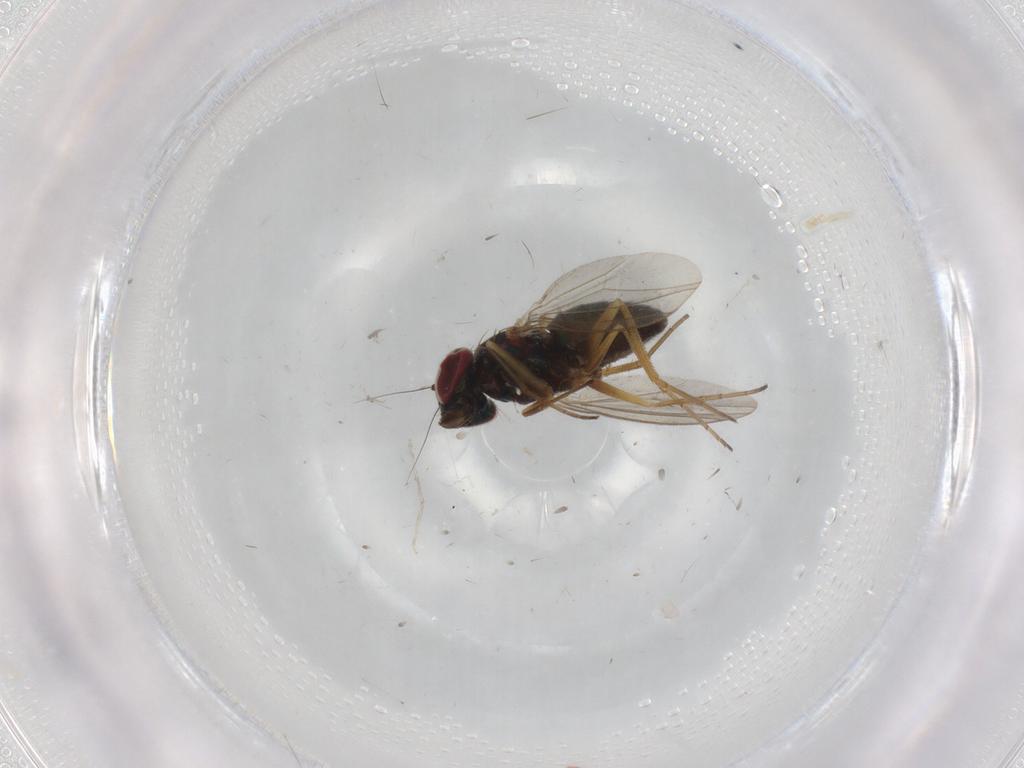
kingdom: Animalia
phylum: Arthropoda
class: Insecta
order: Diptera
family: Dolichopodidae
